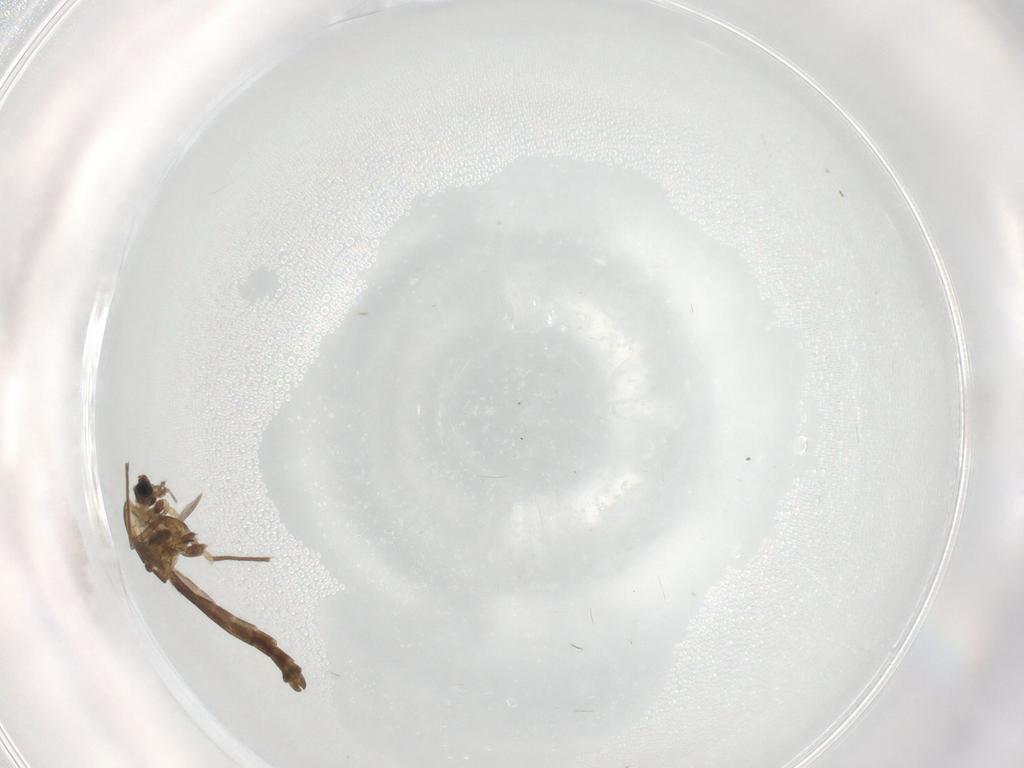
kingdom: Animalia
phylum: Arthropoda
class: Insecta
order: Diptera
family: Chironomidae
